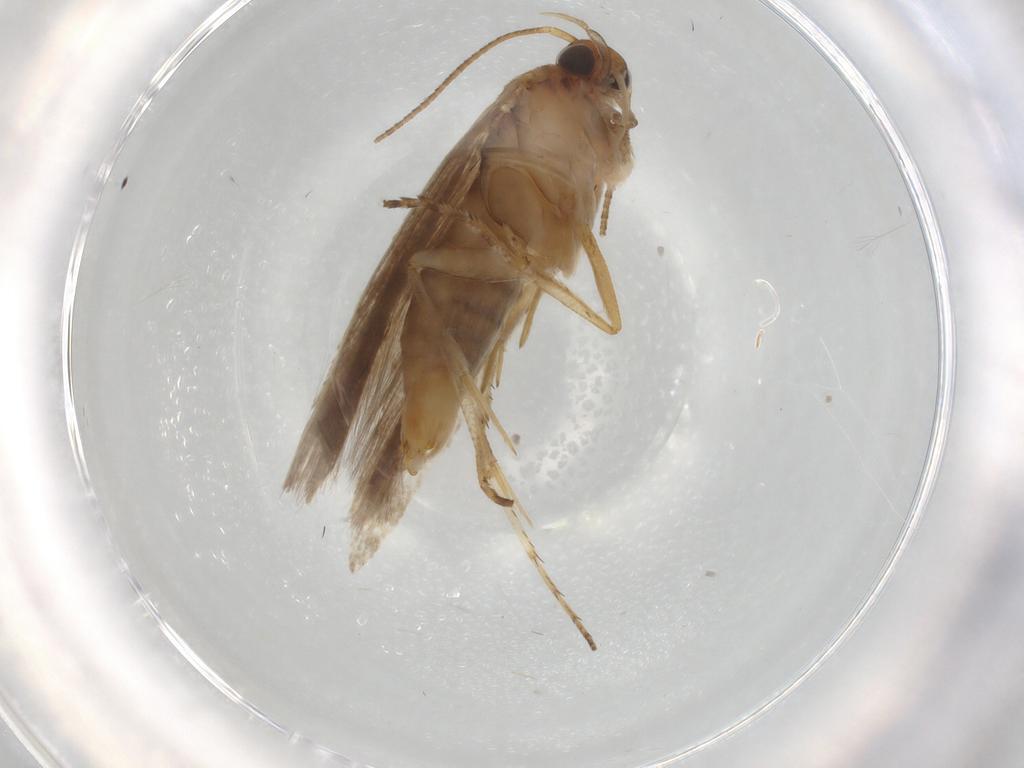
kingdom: Animalia
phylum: Arthropoda
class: Insecta
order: Lepidoptera
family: Gelechiidae
